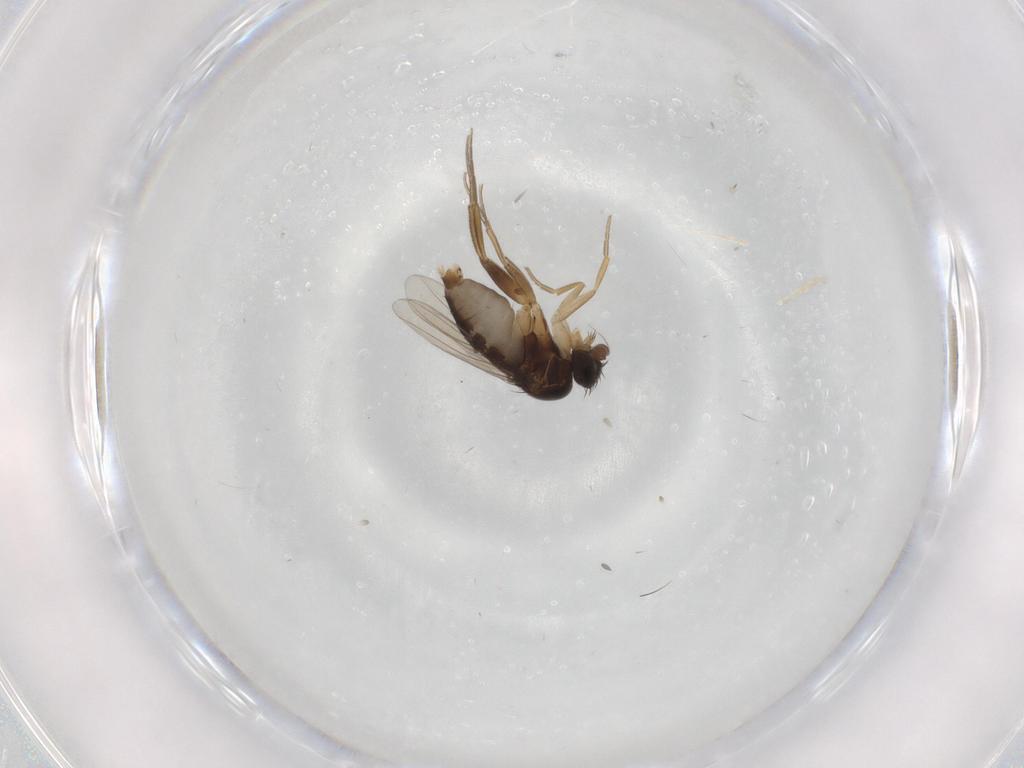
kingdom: Animalia
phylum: Arthropoda
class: Insecta
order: Diptera
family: Phoridae
